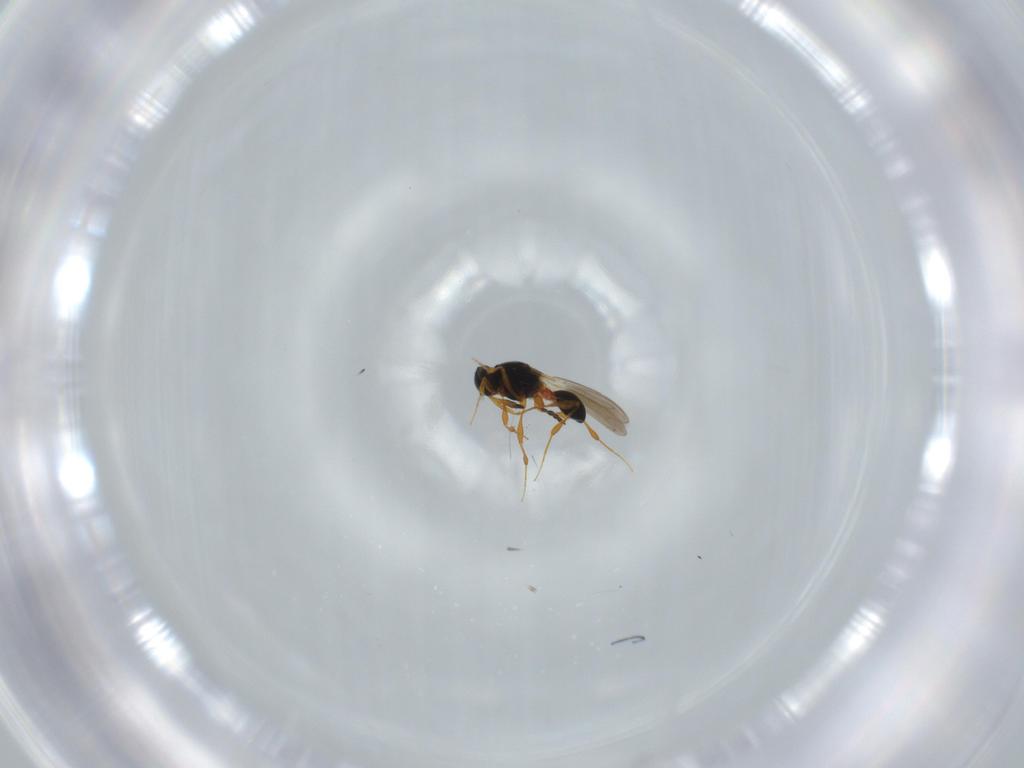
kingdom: Animalia
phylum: Arthropoda
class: Insecta
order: Hymenoptera
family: Platygastridae
